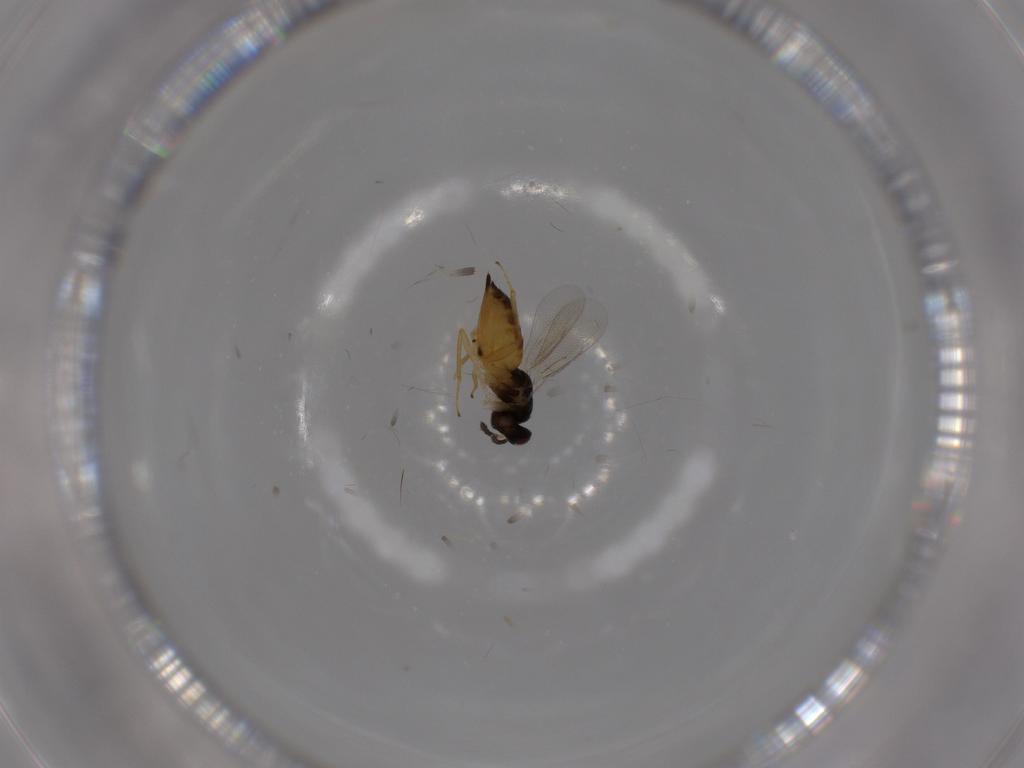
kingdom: Animalia
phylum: Arthropoda
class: Insecta
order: Hymenoptera
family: Eulophidae
